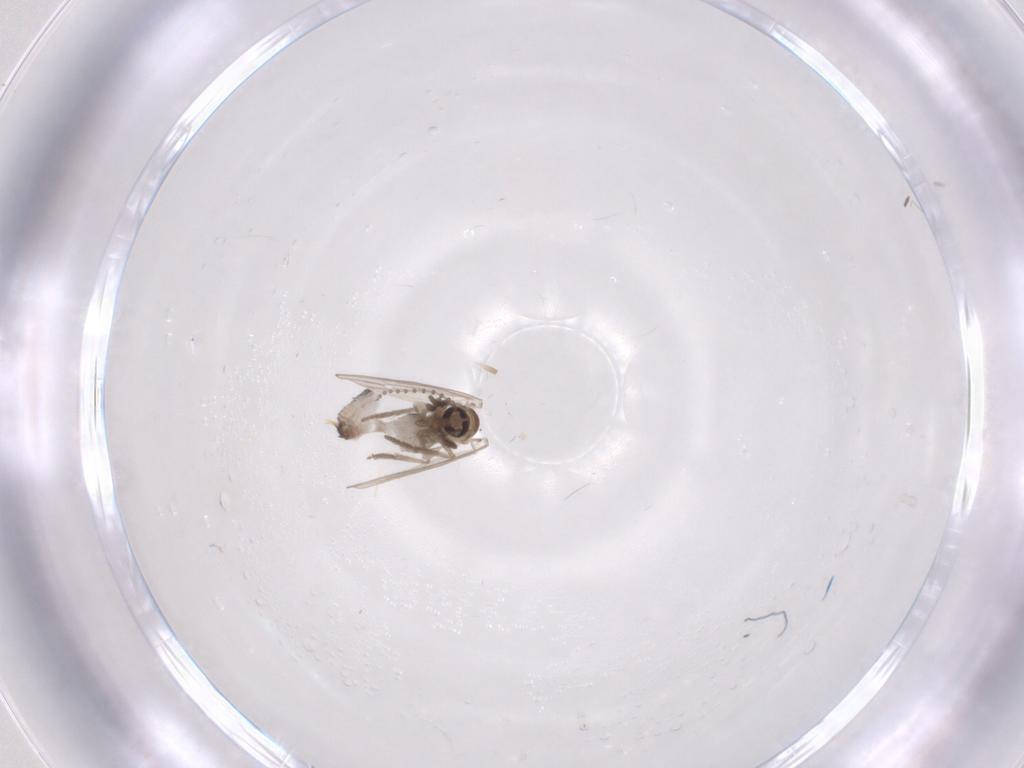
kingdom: Animalia
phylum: Arthropoda
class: Insecta
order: Diptera
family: Psychodidae
